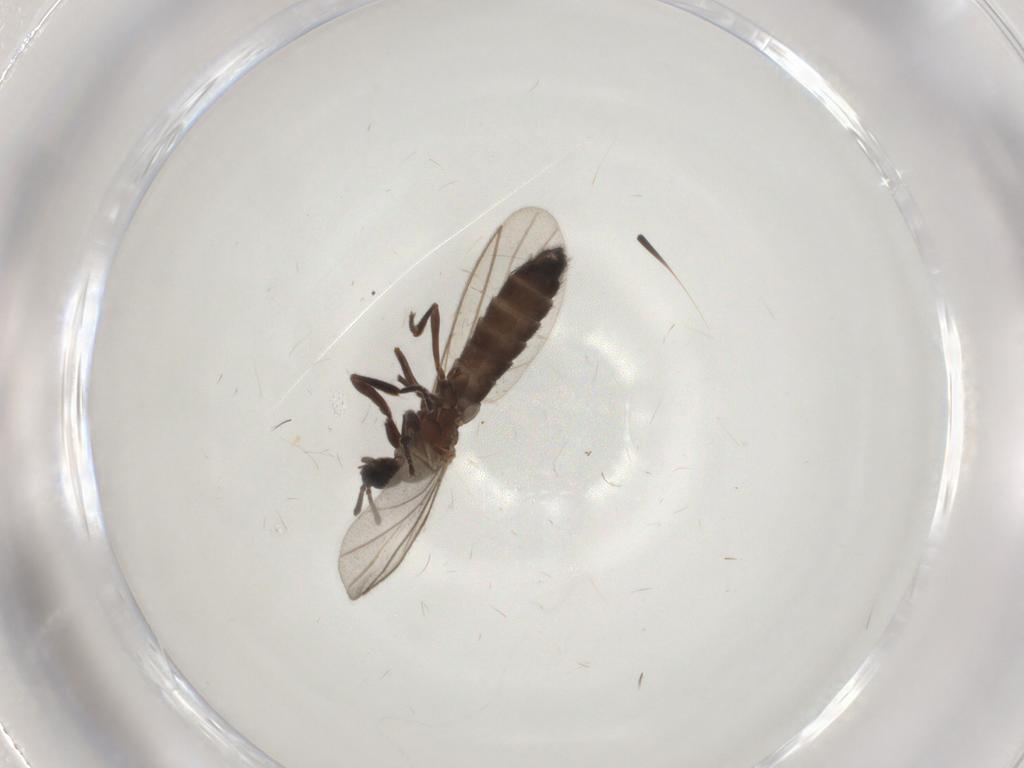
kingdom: Animalia
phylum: Arthropoda
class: Insecta
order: Diptera
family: Scatopsidae
